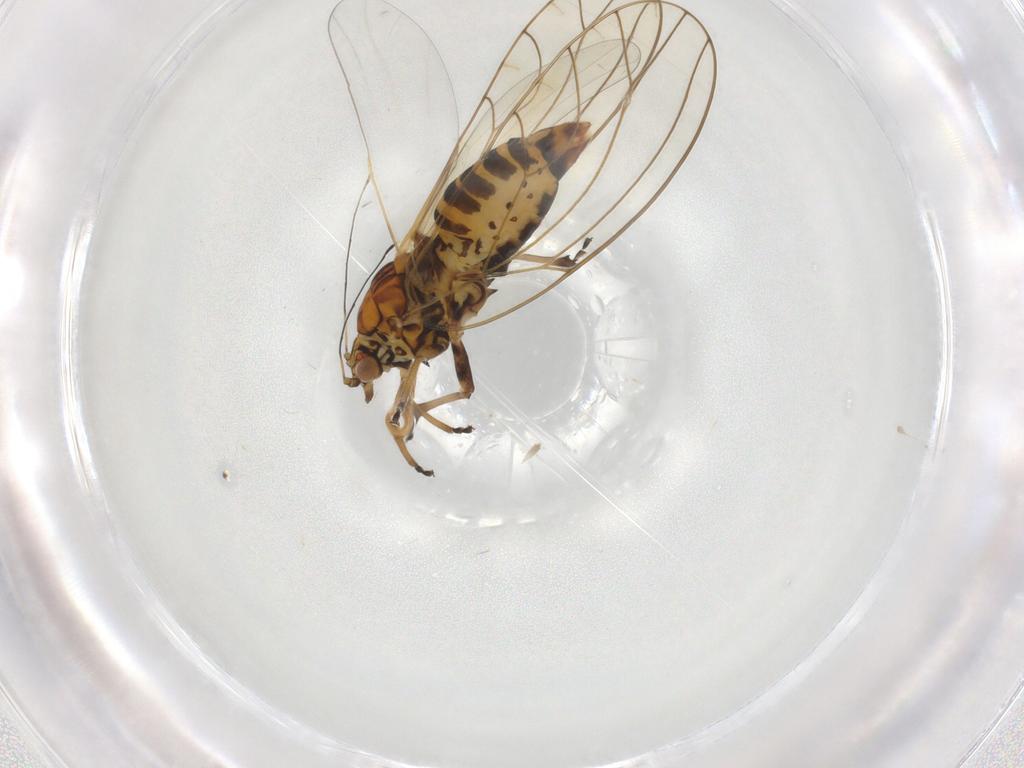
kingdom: Animalia
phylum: Arthropoda
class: Insecta
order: Hemiptera
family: Triozidae
